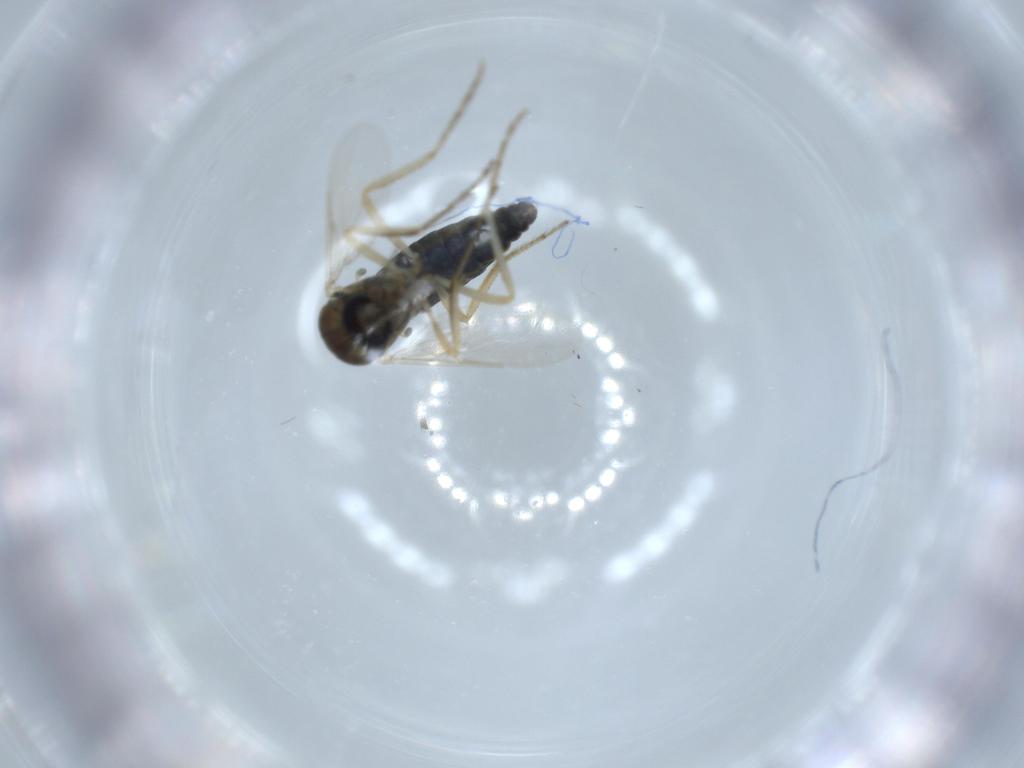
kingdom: Animalia
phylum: Arthropoda
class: Insecta
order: Diptera
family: Ceratopogonidae
